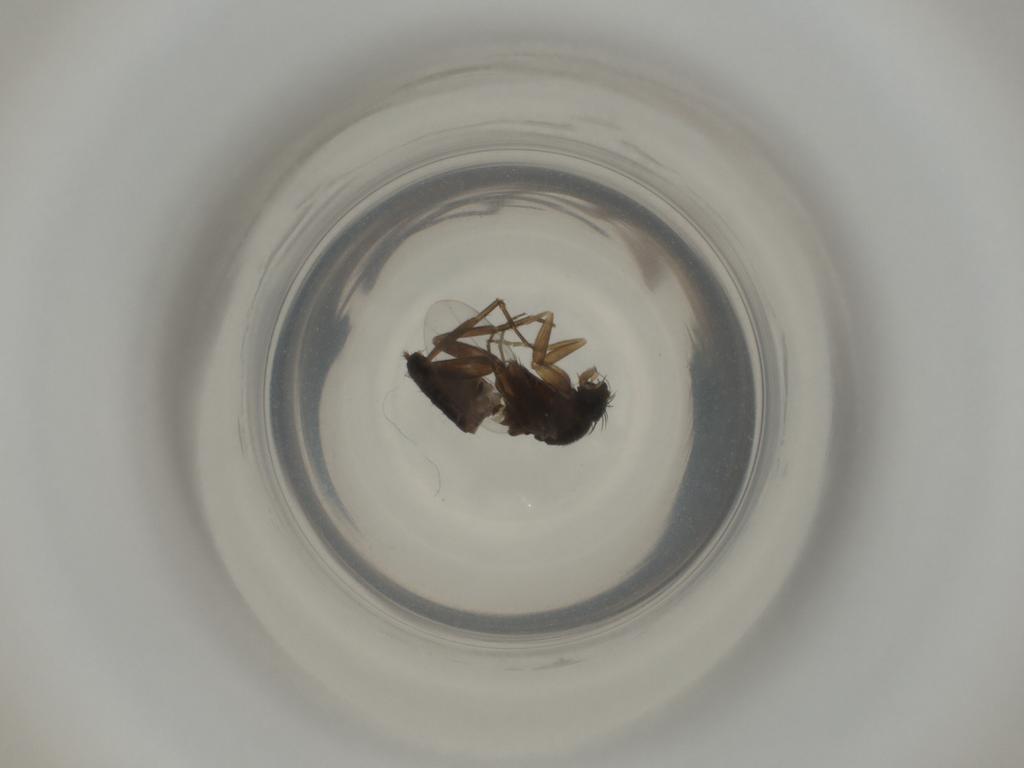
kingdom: Animalia
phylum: Arthropoda
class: Insecta
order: Diptera
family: Phoridae
